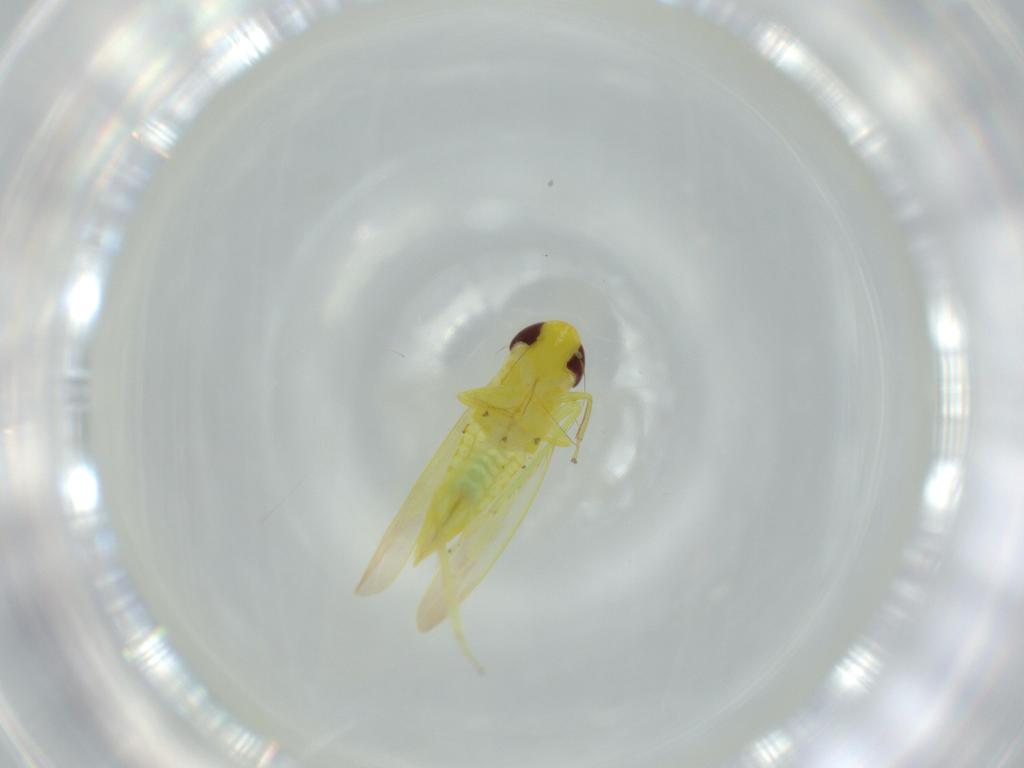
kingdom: Animalia
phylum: Arthropoda
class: Insecta
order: Hemiptera
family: Cicadellidae
